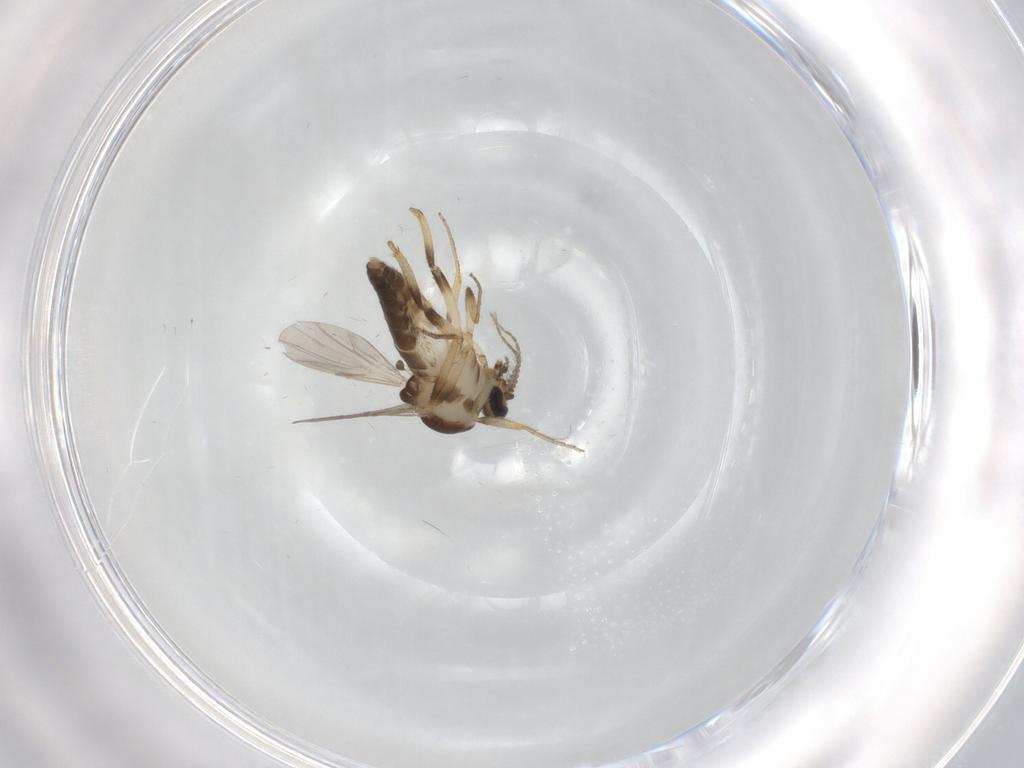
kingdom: Animalia
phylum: Arthropoda
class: Insecta
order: Diptera
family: Ceratopogonidae
